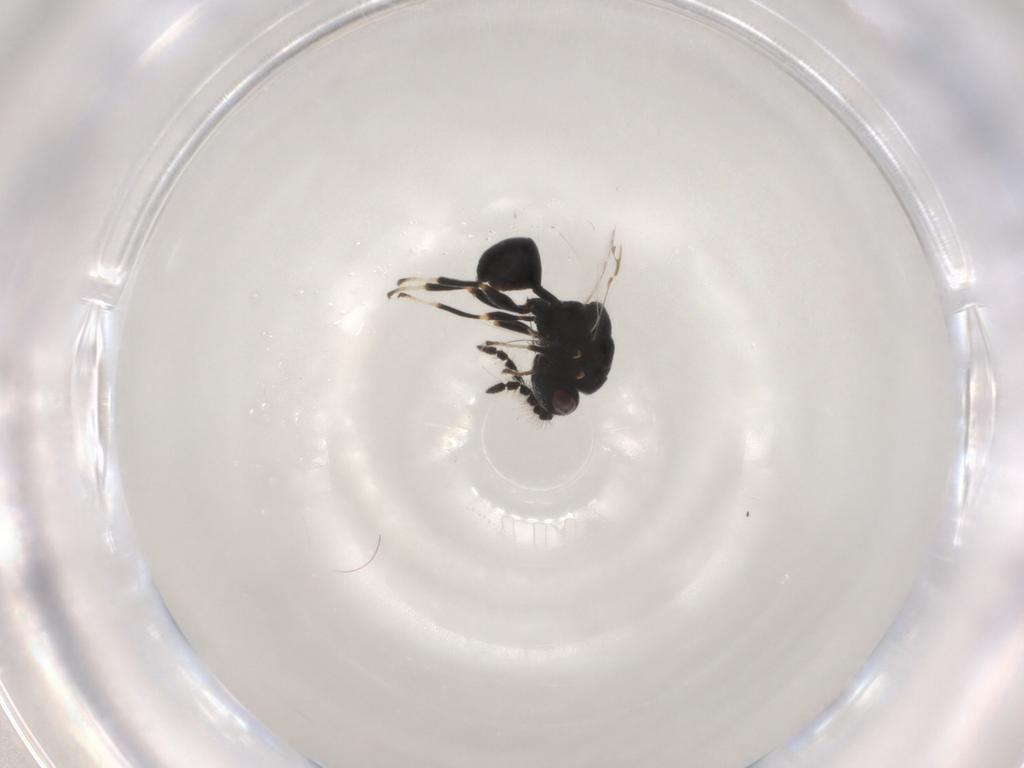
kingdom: Animalia
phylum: Arthropoda
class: Insecta
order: Hymenoptera
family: Eurytomidae
